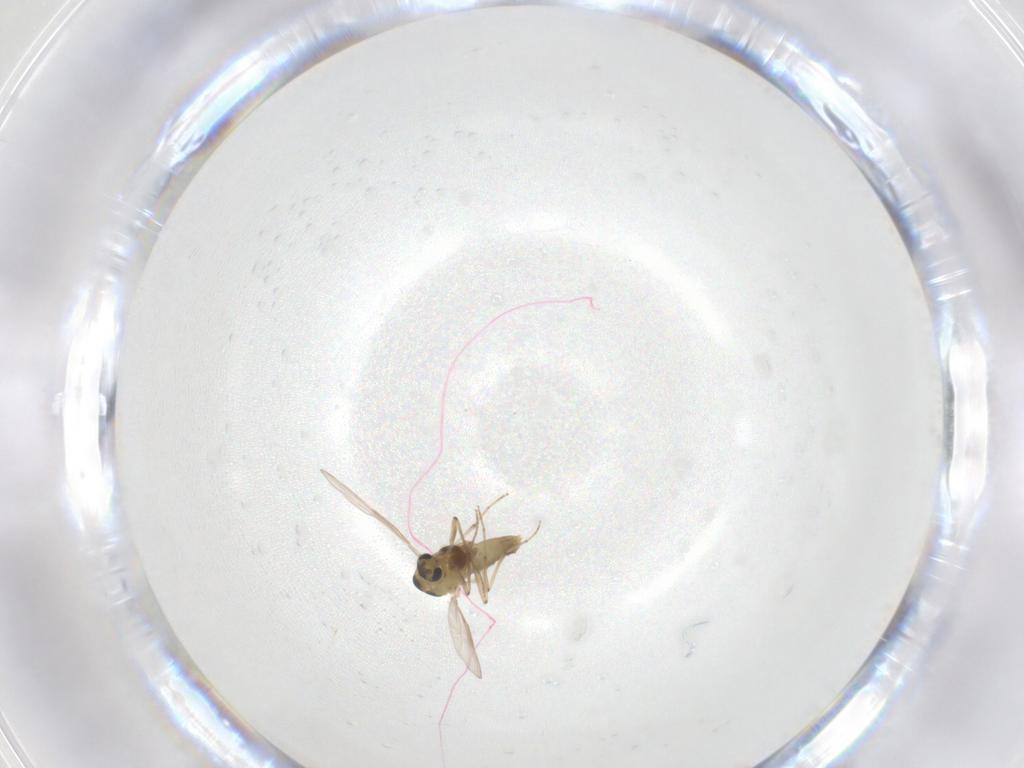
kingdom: Animalia
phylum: Arthropoda
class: Insecta
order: Diptera
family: Chironomidae
